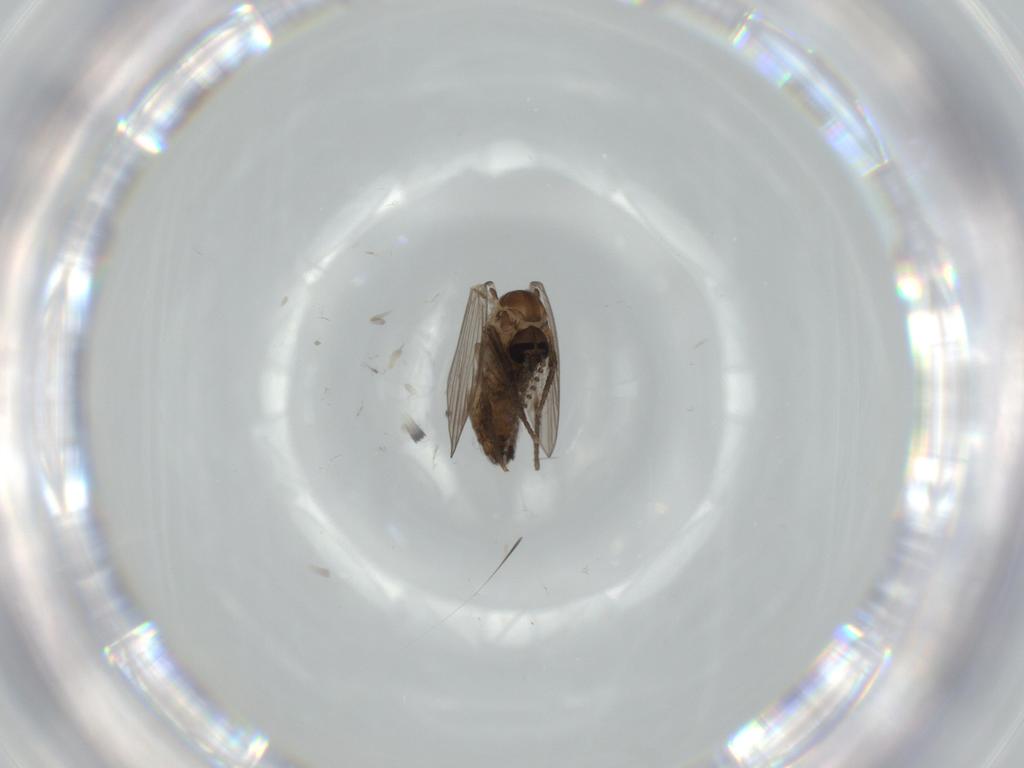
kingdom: Animalia
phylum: Arthropoda
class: Insecta
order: Diptera
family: Psychodidae
